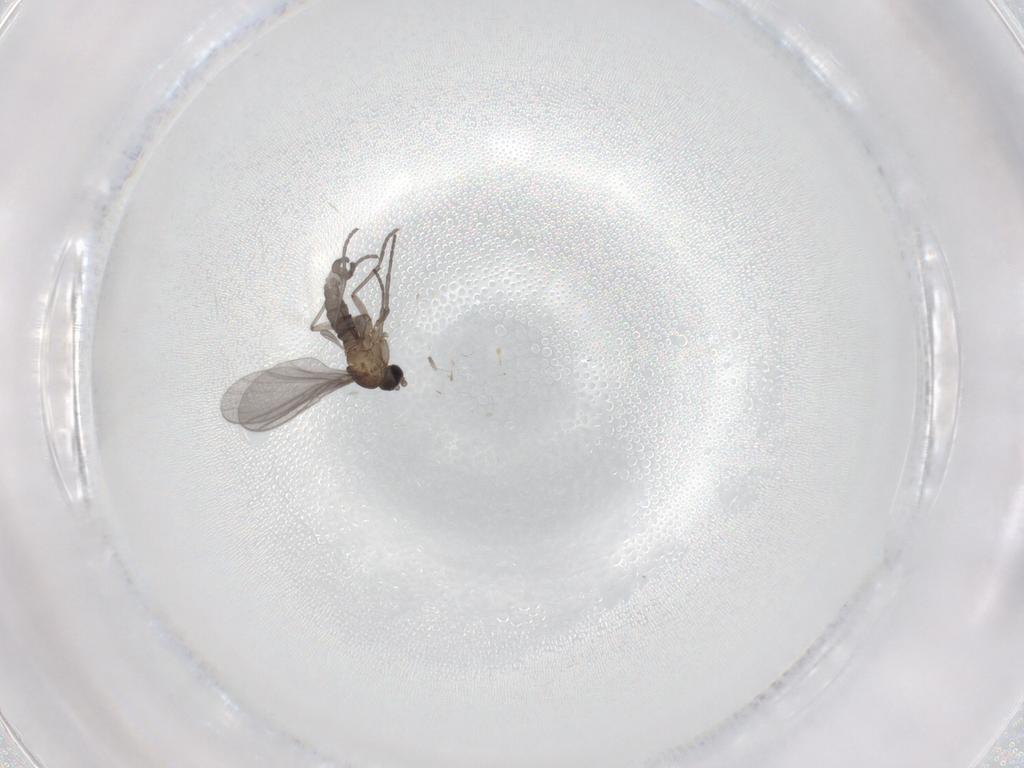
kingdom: Animalia
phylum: Arthropoda
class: Insecta
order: Diptera
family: Sciaridae
